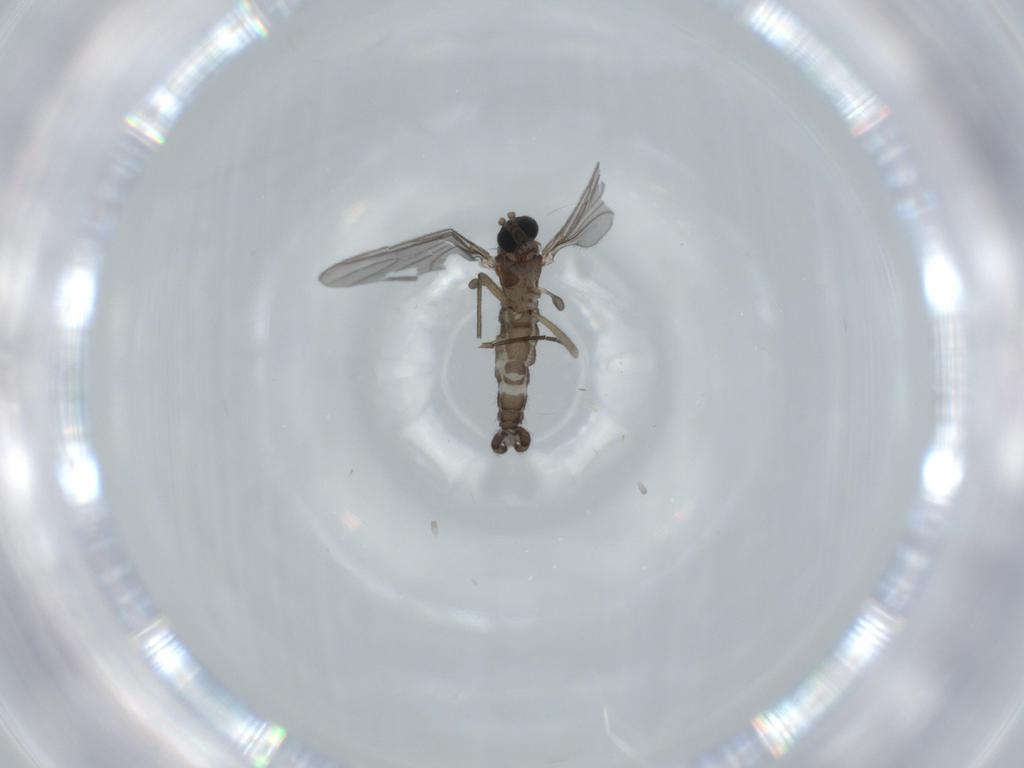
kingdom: Animalia
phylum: Arthropoda
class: Insecta
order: Diptera
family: Sciaridae
